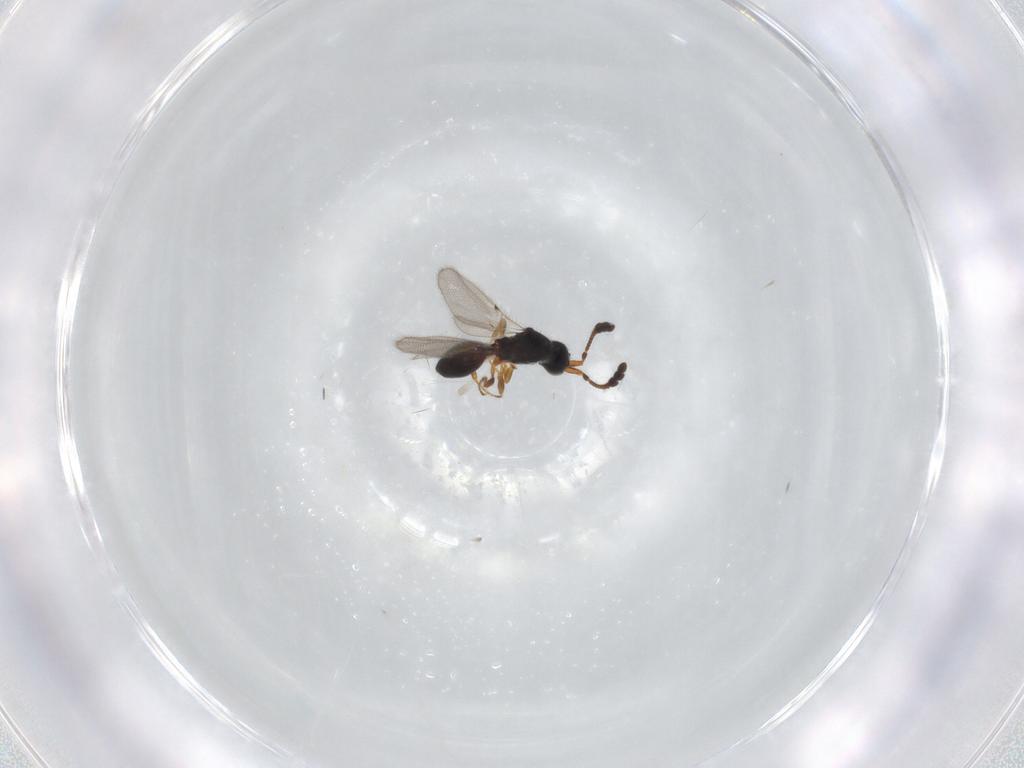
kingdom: Animalia
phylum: Arthropoda
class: Insecta
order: Hymenoptera
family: Diapriidae
